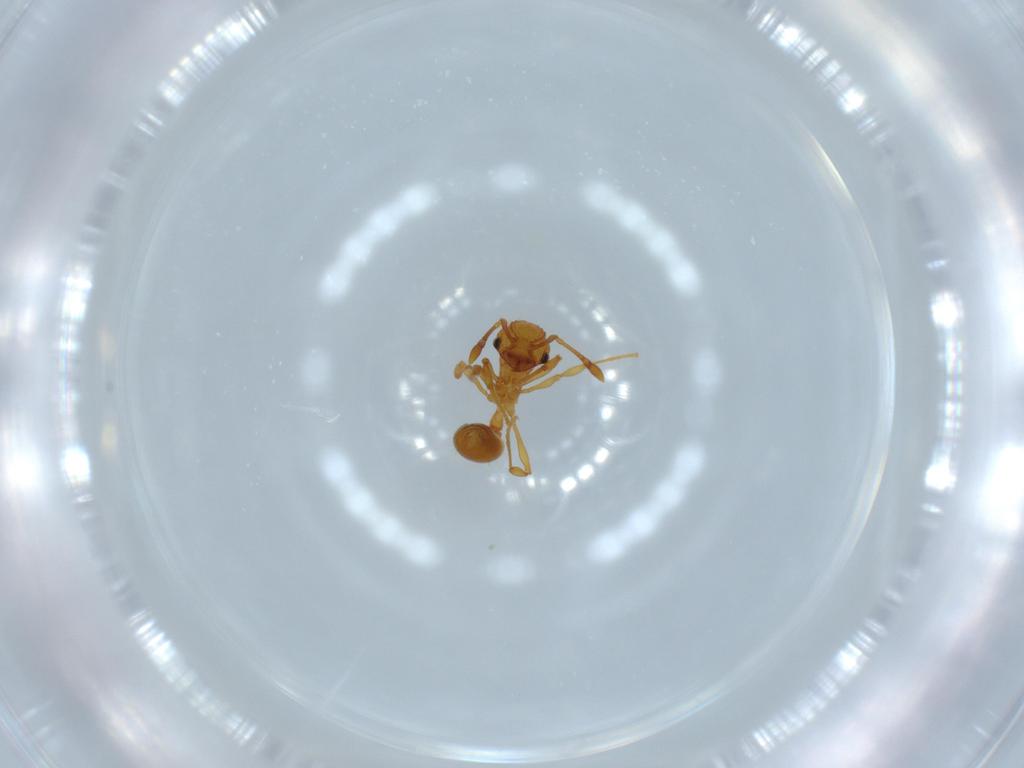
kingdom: Animalia
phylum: Arthropoda
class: Insecta
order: Hymenoptera
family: Formicidae
